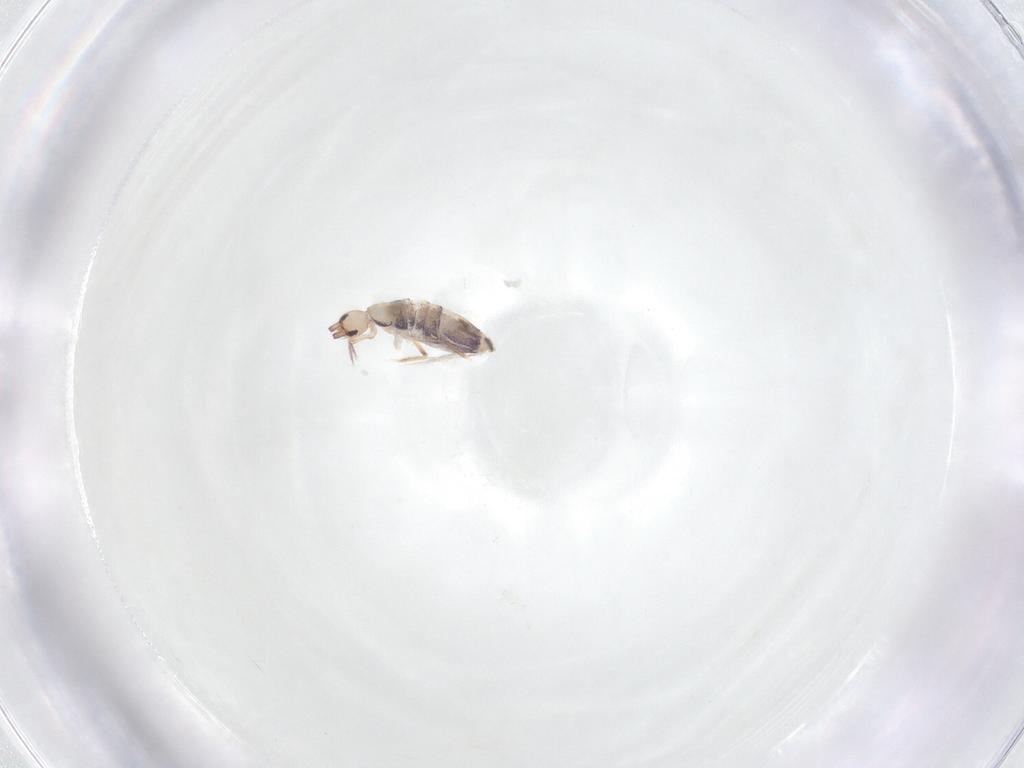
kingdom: Animalia
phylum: Arthropoda
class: Collembola
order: Entomobryomorpha
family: Entomobryidae
